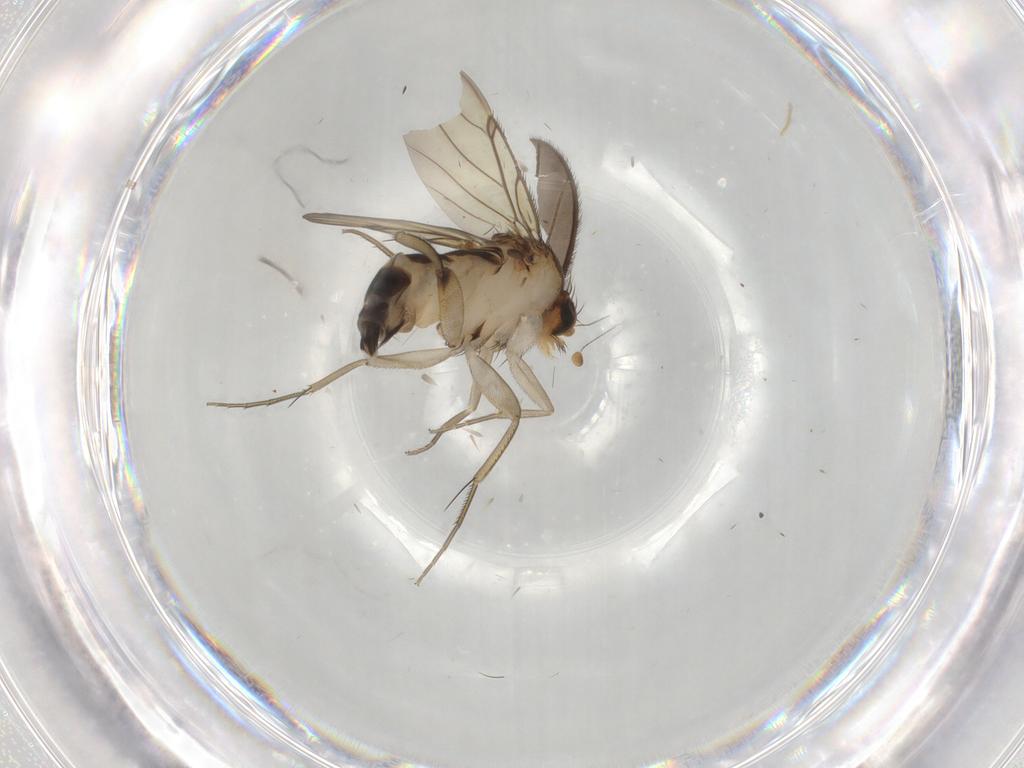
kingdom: Animalia
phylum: Arthropoda
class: Insecta
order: Diptera
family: Phoridae
